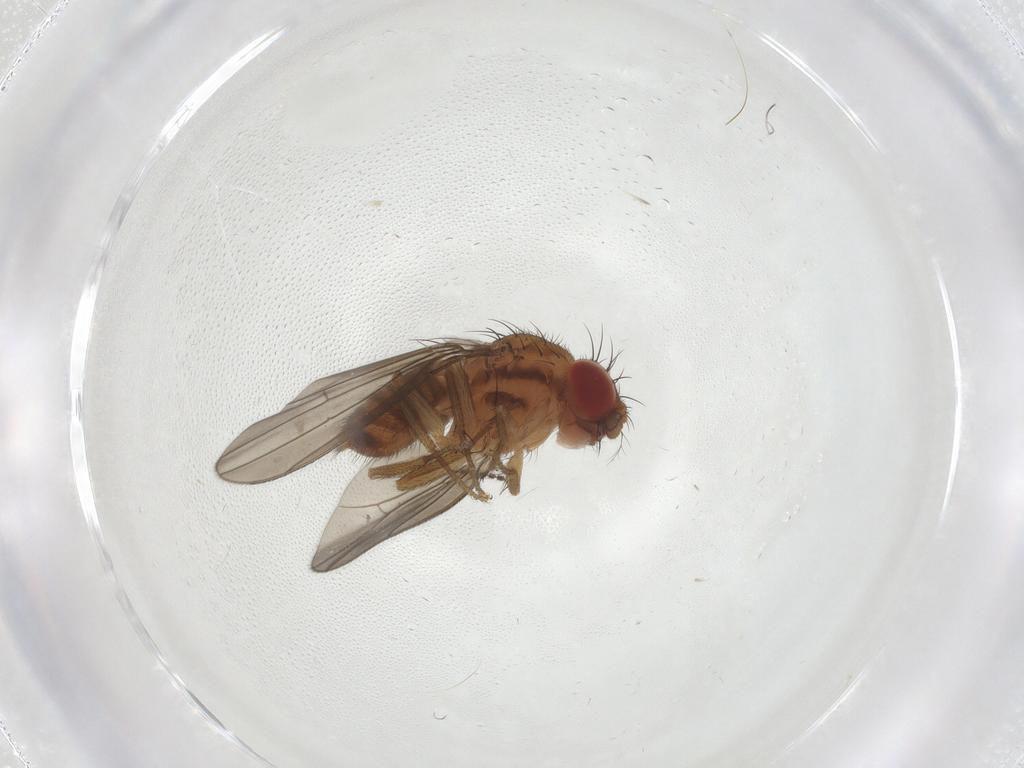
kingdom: Animalia
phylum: Arthropoda
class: Insecta
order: Diptera
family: Drosophilidae
